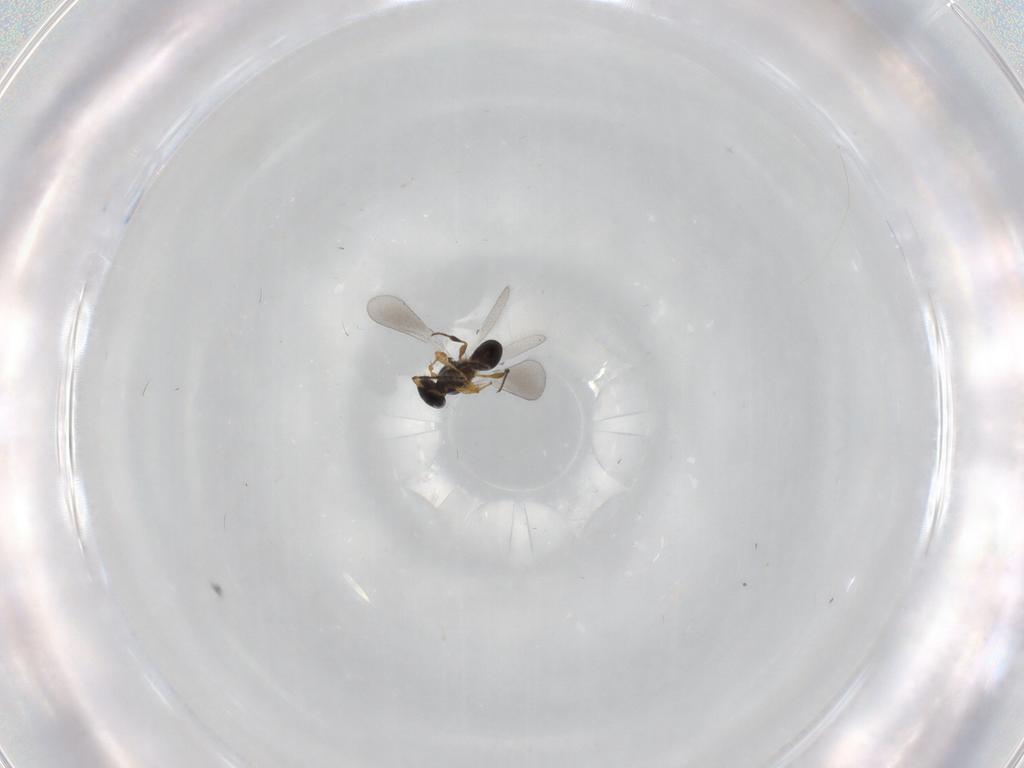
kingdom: Animalia
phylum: Arthropoda
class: Insecta
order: Hymenoptera
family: Platygastridae
